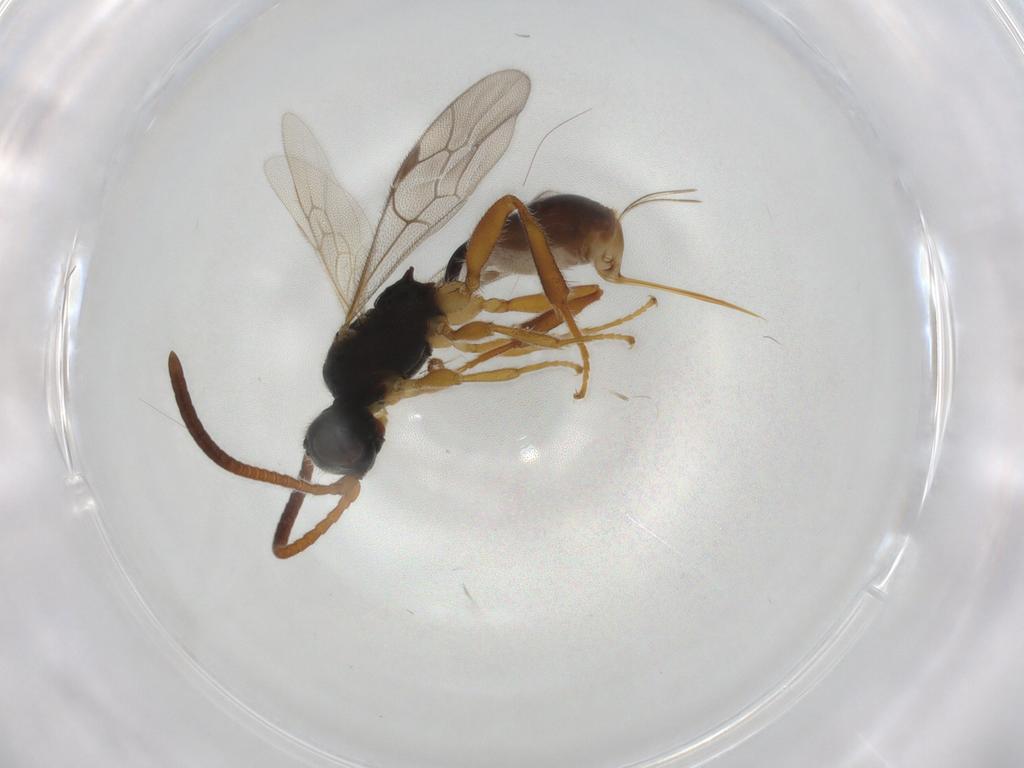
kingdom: Animalia
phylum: Arthropoda
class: Insecta
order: Hymenoptera
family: Ichneumonidae
